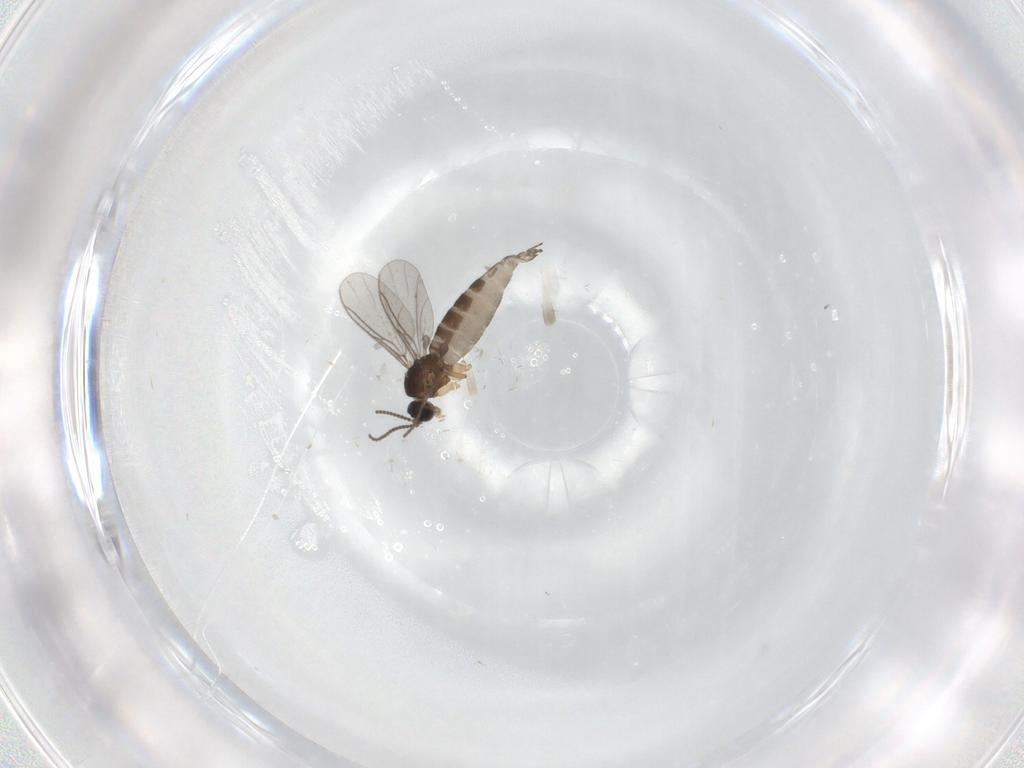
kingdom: Animalia
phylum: Arthropoda
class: Insecta
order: Diptera
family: Sciaridae
